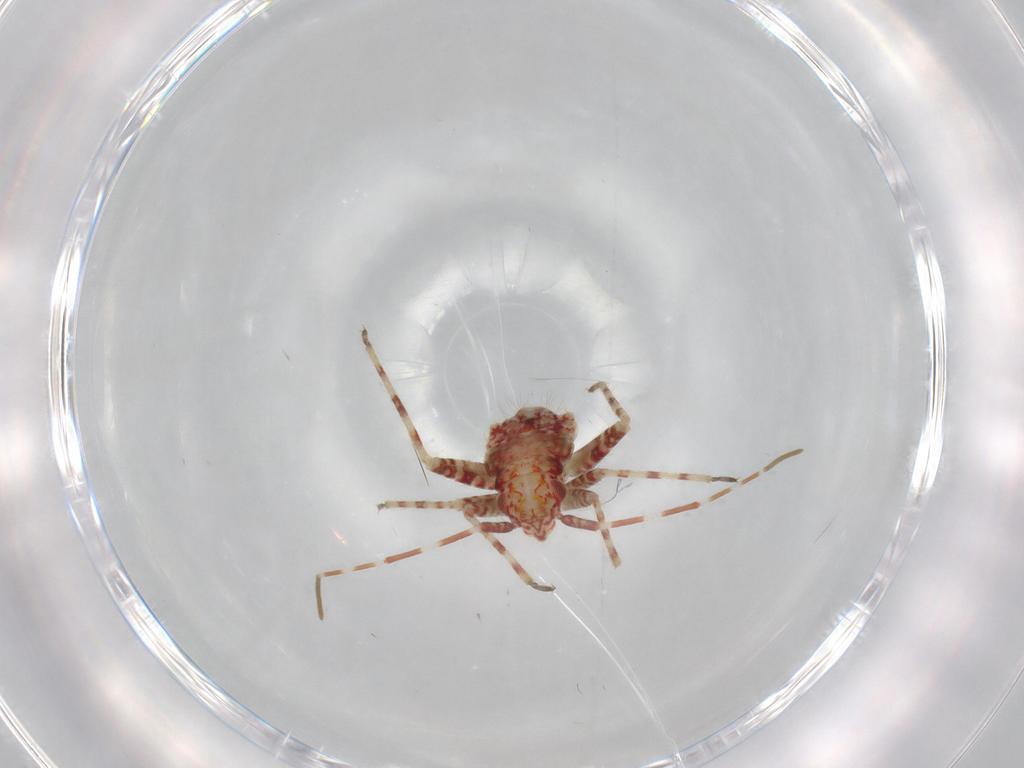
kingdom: Animalia
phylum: Arthropoda
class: Insecta
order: Hemiptera
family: Miridae
